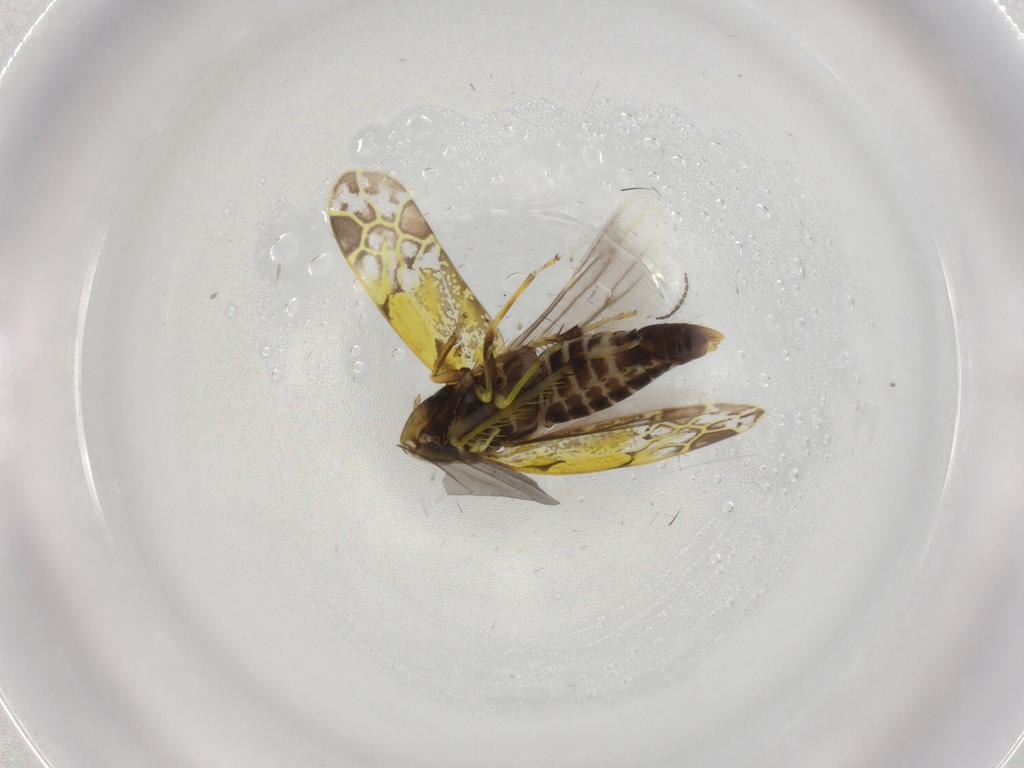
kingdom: Animalia
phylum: Arthropoda
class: Insecta
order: Hemiptera
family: Cicadellidae
